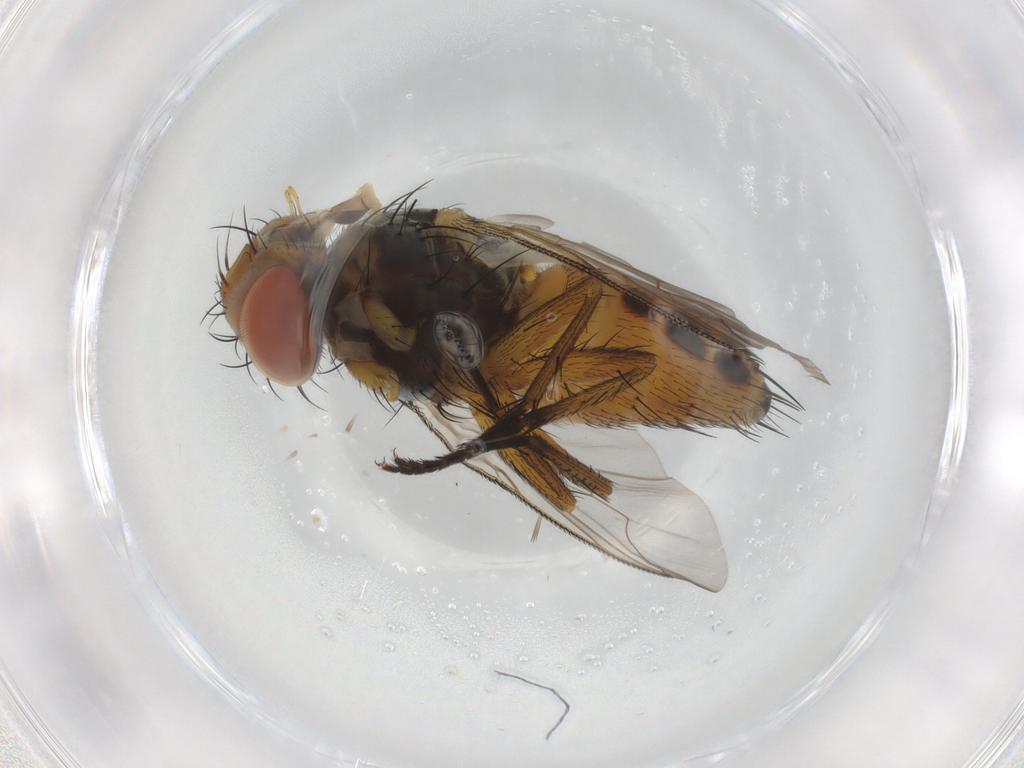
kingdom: Animalia
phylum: Arthropoda
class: Insecta
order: Diptera
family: Sarcophagidae
